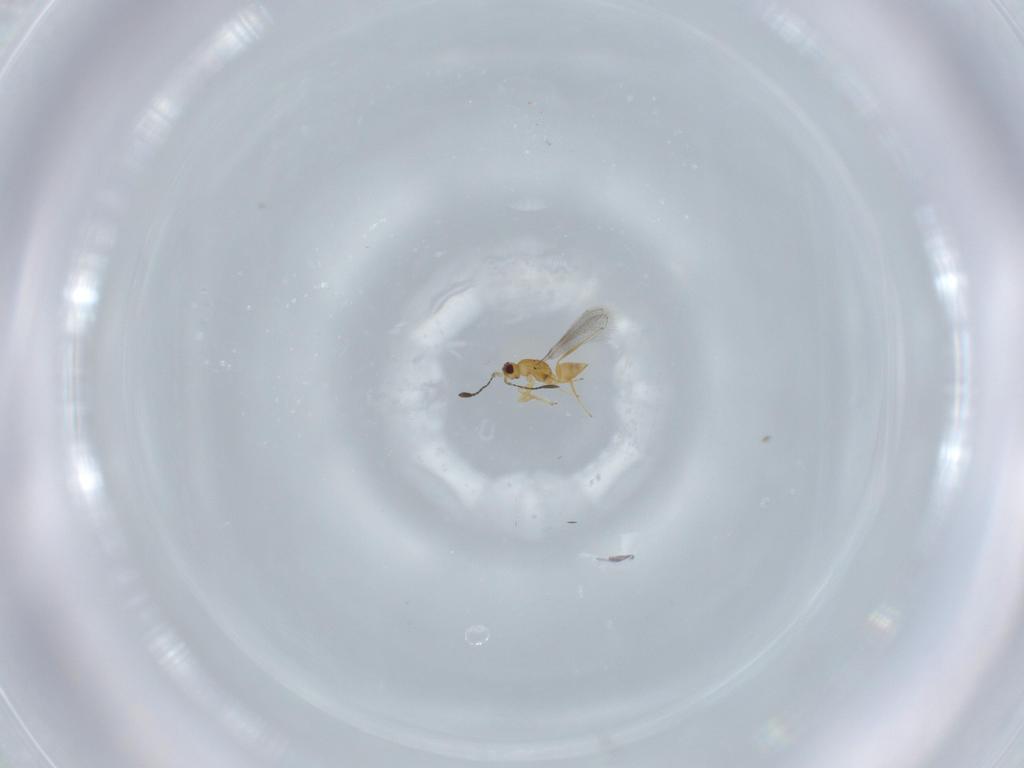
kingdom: Animalia
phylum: Arthropoda
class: Insecta
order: Hymenoptera
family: Mymaridae
